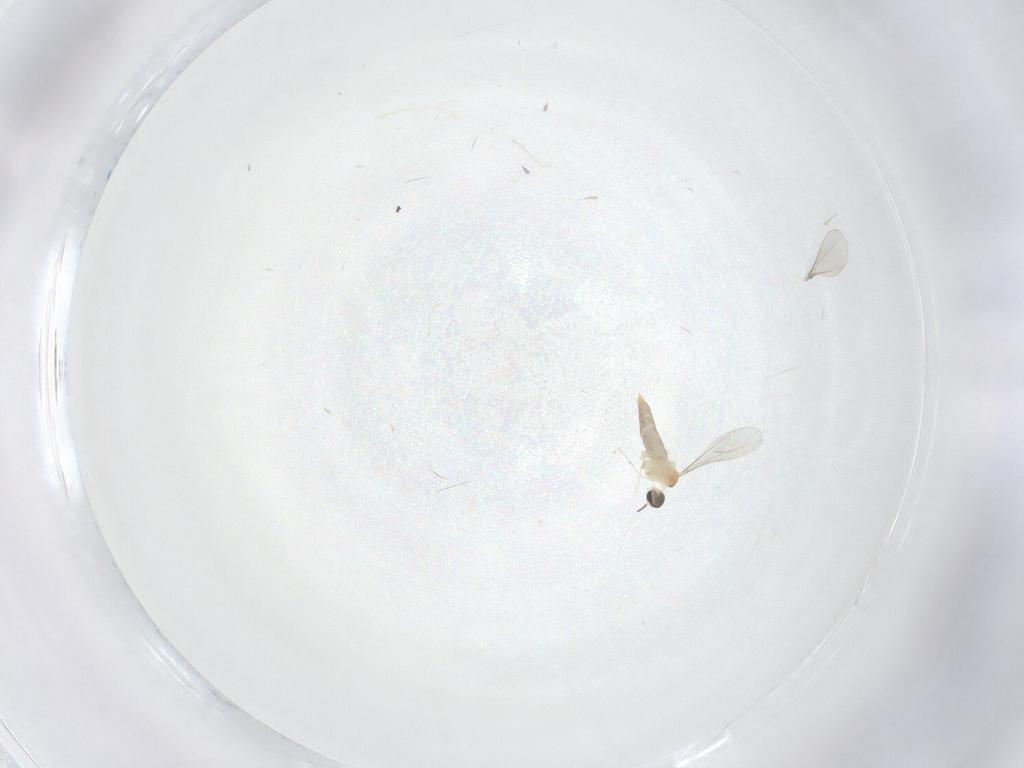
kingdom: Animalia
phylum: Arthropoda
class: Insecta
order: Diptera
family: Cecidomyiidae
